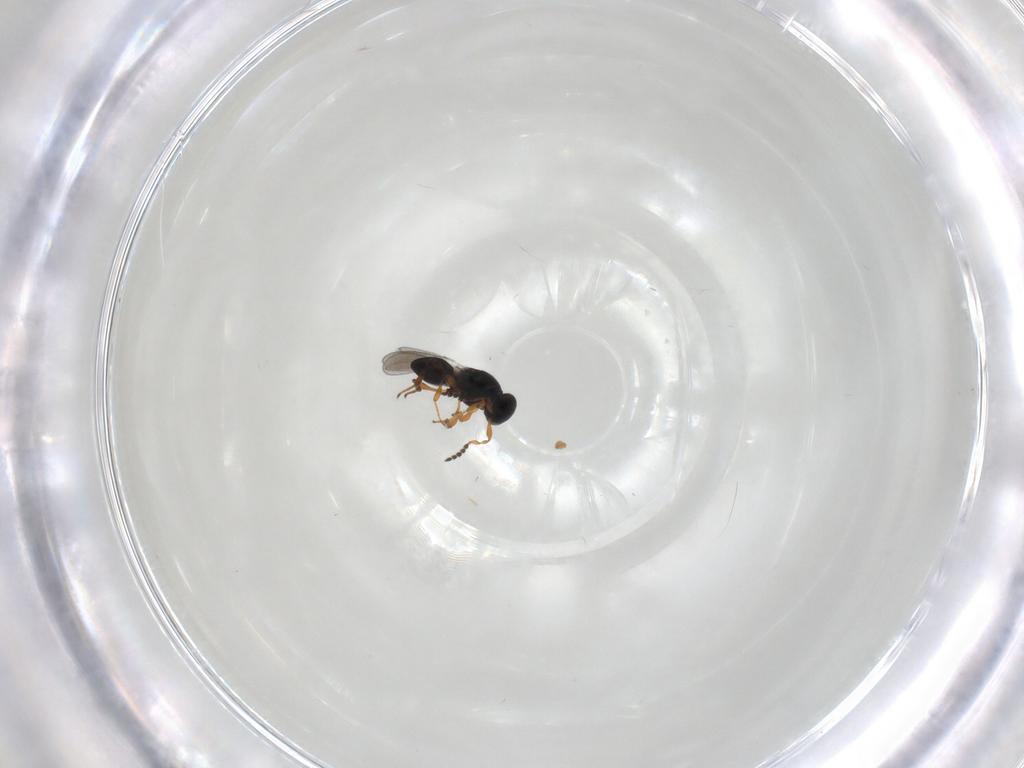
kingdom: Animalia
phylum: Arthropoda
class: Insecta
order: Hymenoptera
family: Platygastridae
